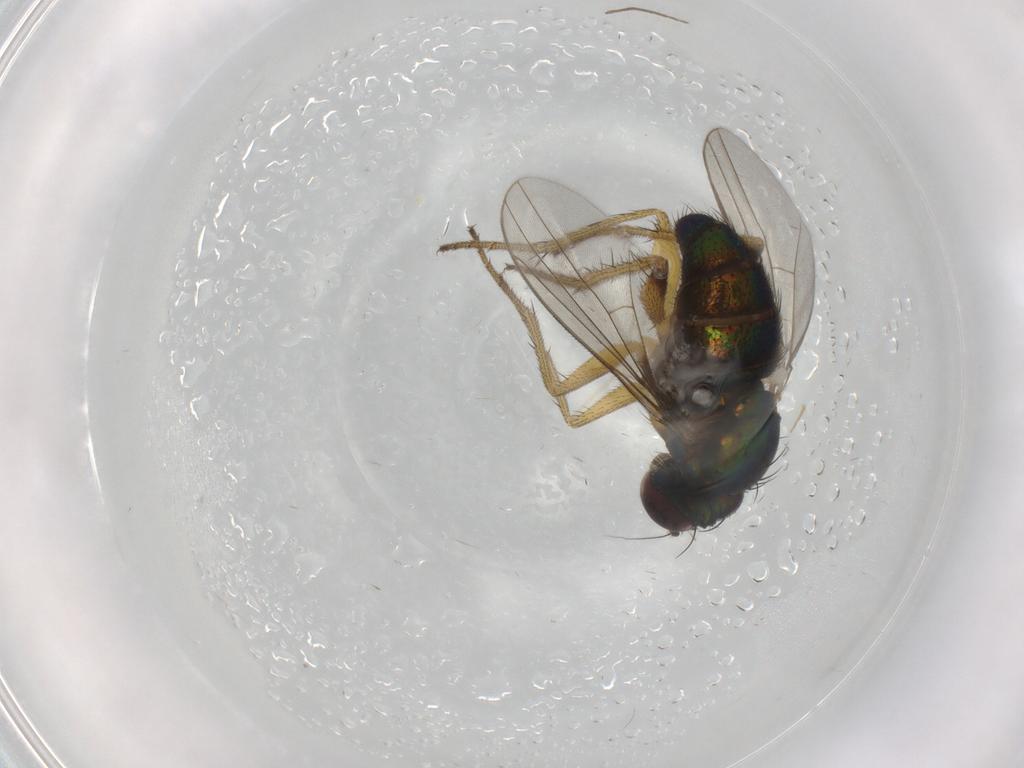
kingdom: Animalia
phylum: Arthropoda
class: Insecta
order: Diptera
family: Dolichopodidae
